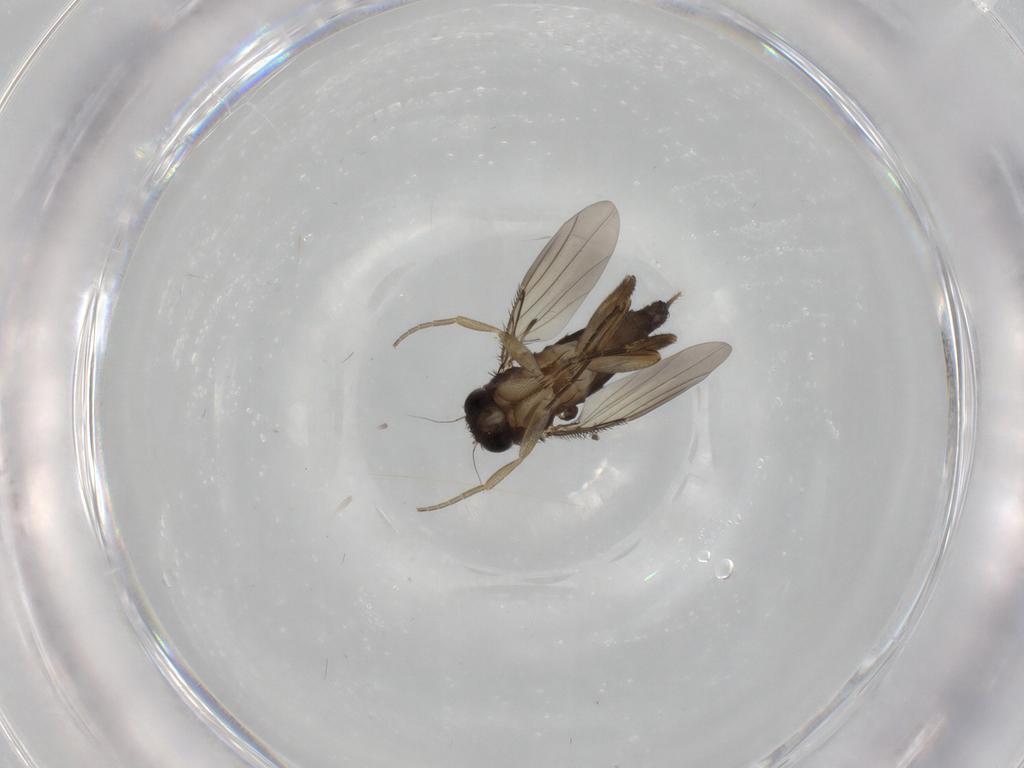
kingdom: Animalia
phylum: Arthropoda
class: Insecta
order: Diptera
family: Phoridae
